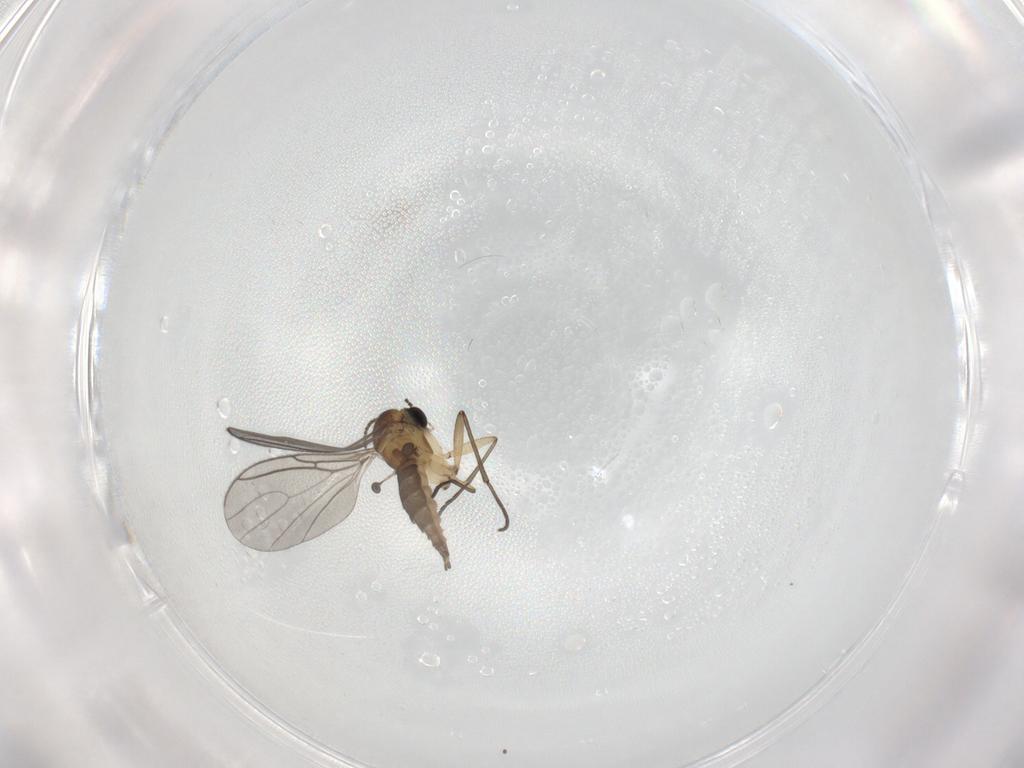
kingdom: Animalia
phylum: Arthropoda
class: Insecta
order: Diptera
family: Sciaridae
